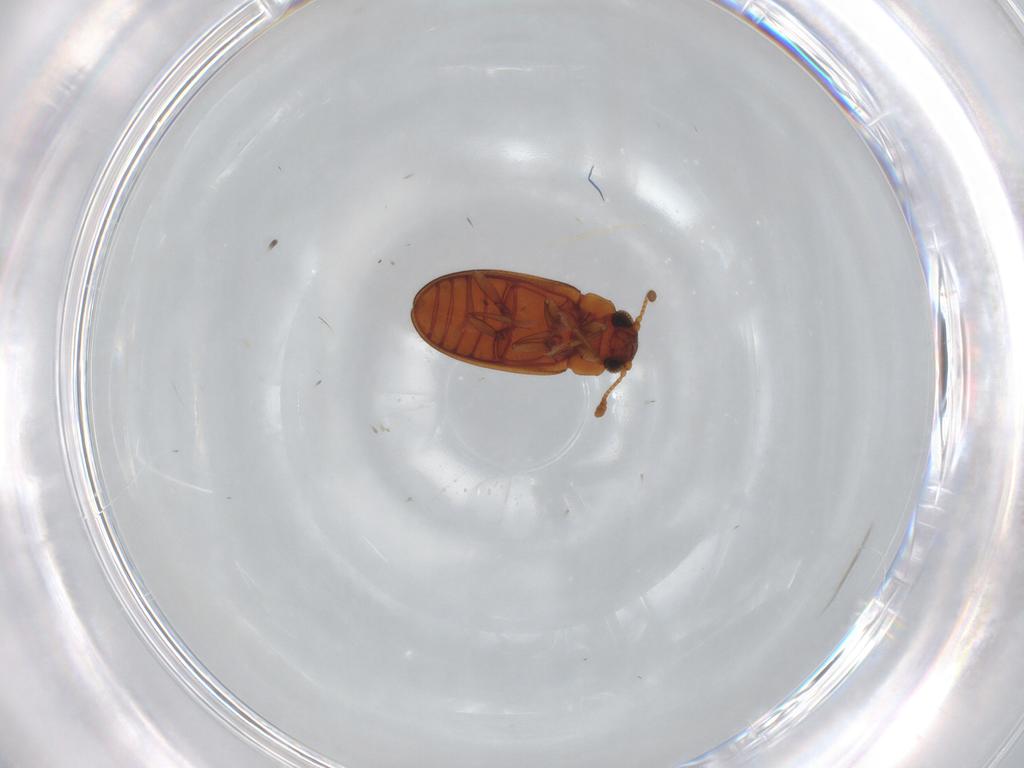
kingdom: Animalia
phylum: Arthropoda
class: Insecta
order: Coleoptera
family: Erotylidae
